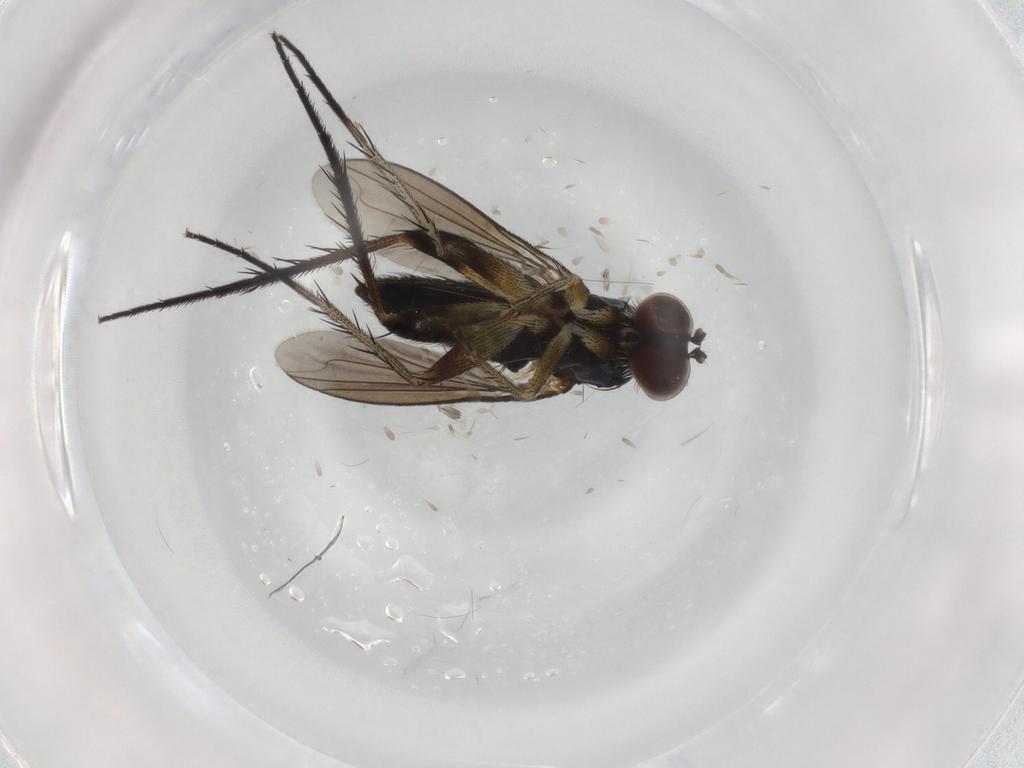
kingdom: Animalia
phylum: Arthropoda
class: Insecta
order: Diptera
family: Dolichopodidae
